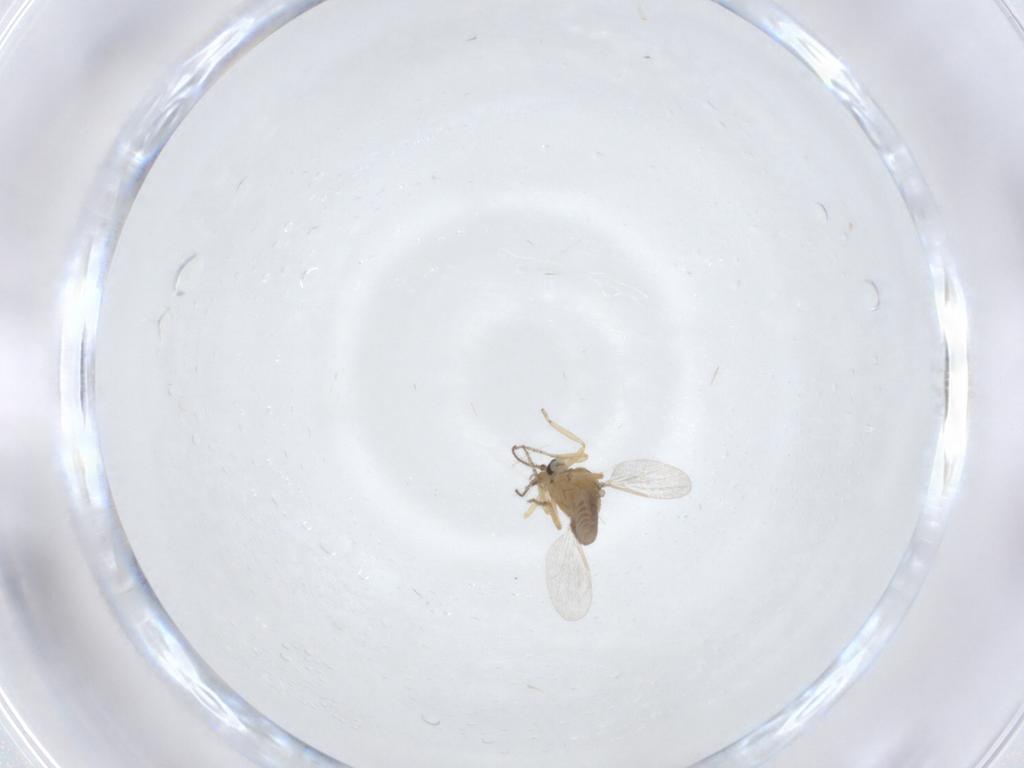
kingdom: Animalia
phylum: Arthropoda
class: Insecta
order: Diptera
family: Ceratopogonidae
